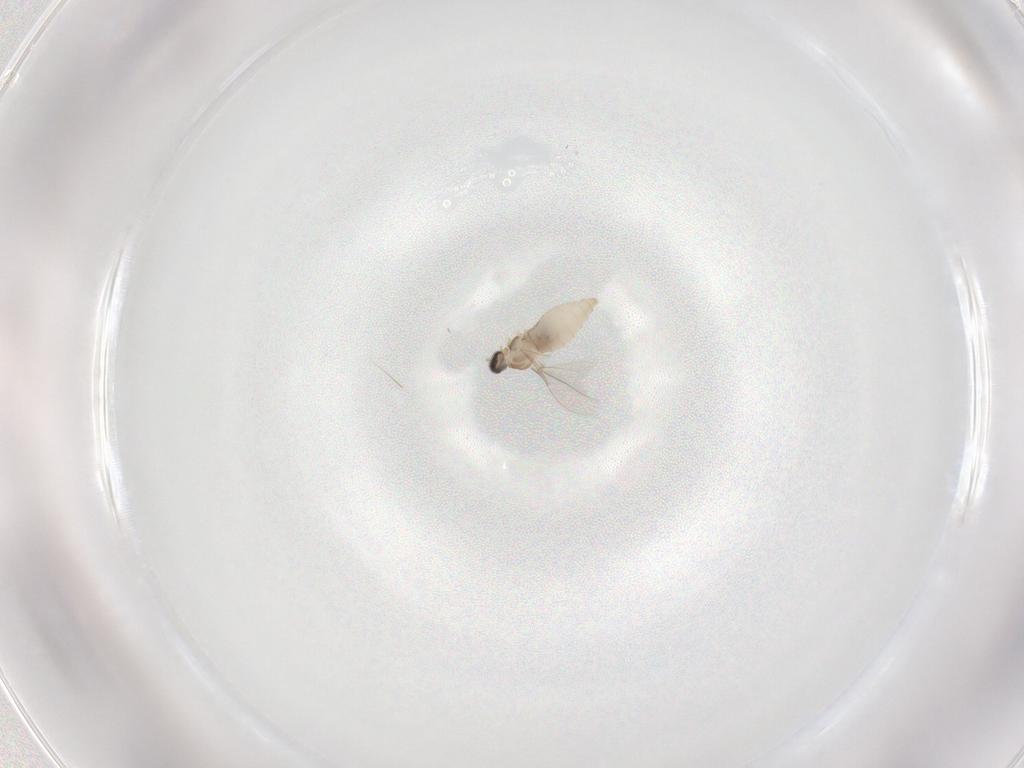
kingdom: Animalia
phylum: Arthropoda
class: Insecta
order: Diptera
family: Cecidomyiidae
